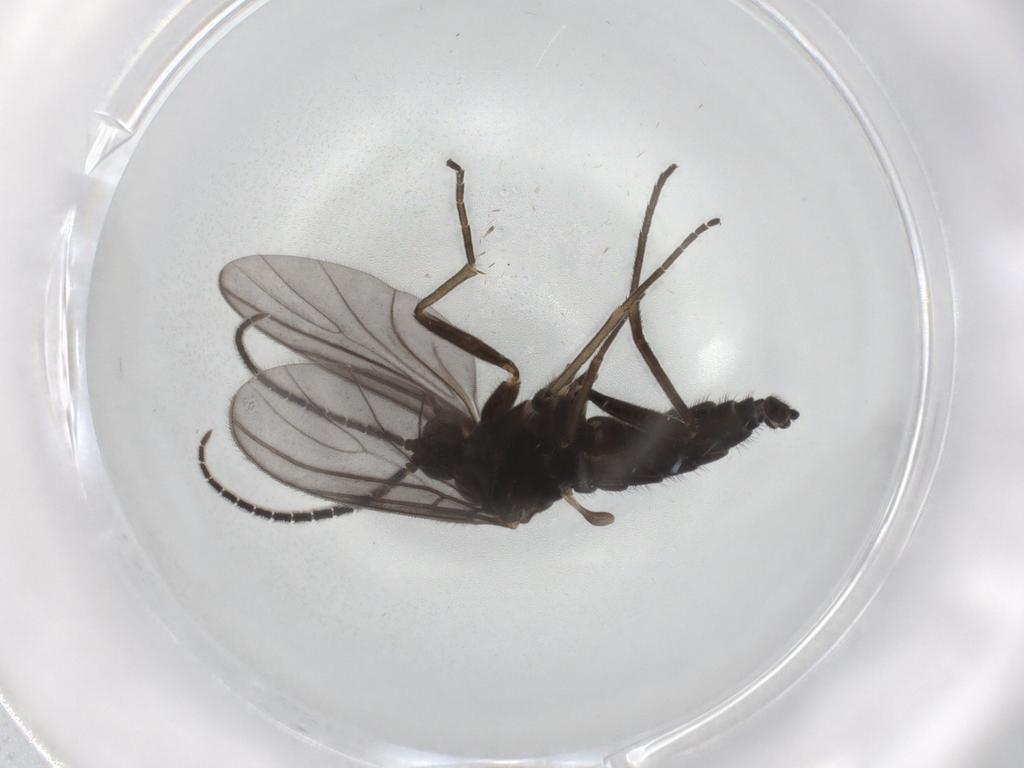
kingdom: Animalia
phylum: Arthropoda
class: Insecta
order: Diptera
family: Sciaridae
